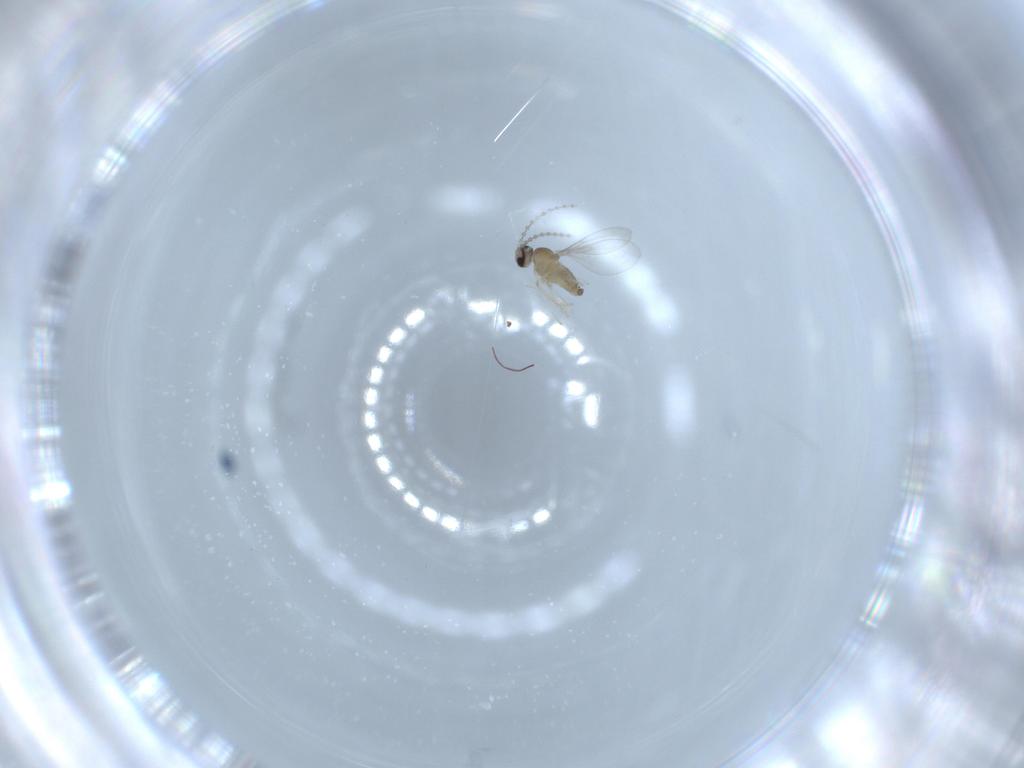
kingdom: Animalia
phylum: Arthropoda
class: Insecta
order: Diptera
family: Cecidomyiidae
